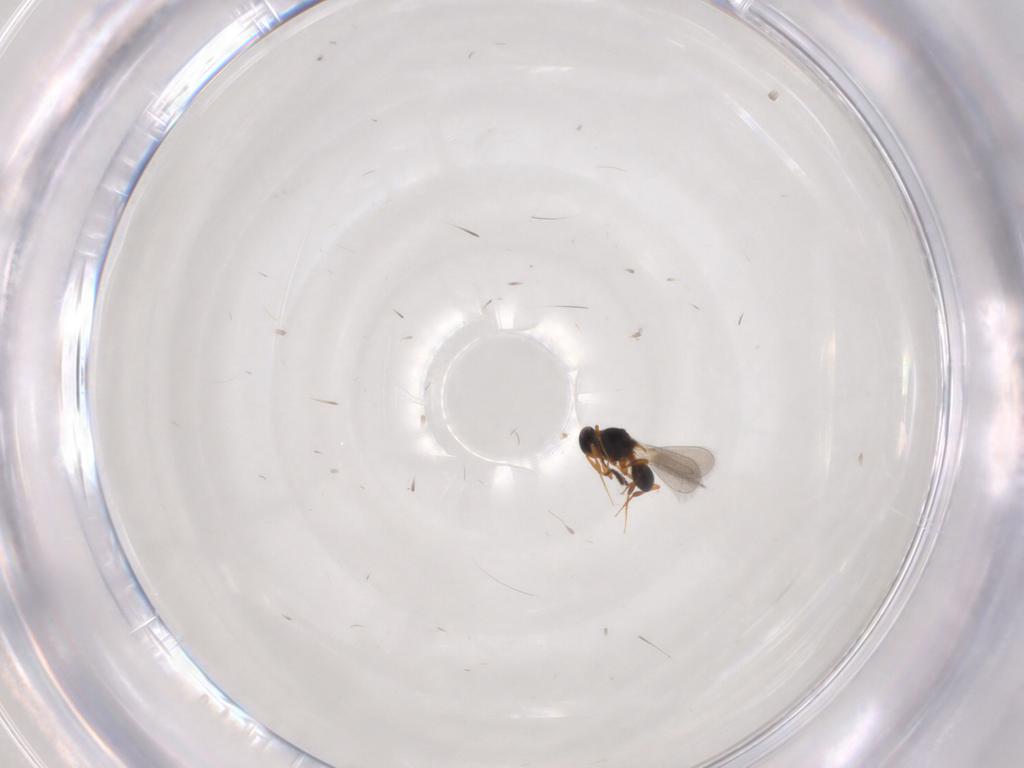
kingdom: Animalia
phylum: Arthropoda
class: Insecta
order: Hymenoptera
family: Platygastridae
